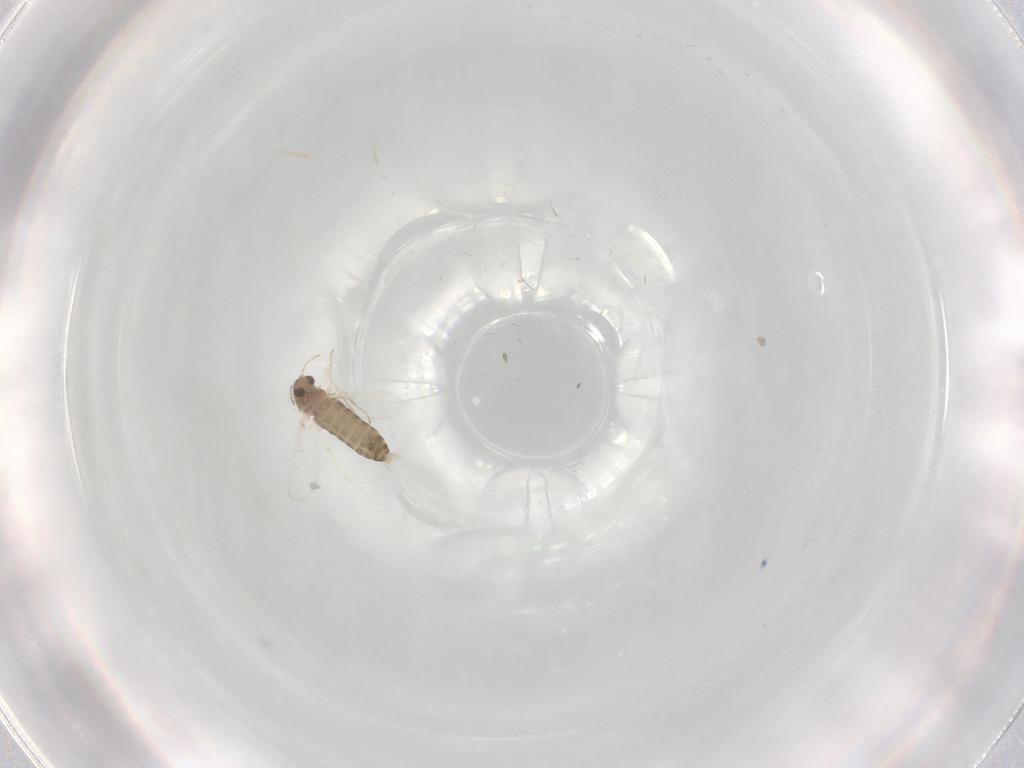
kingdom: Animalia
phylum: Arthropoda
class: Insecta
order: Diptera
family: Chironomidae
